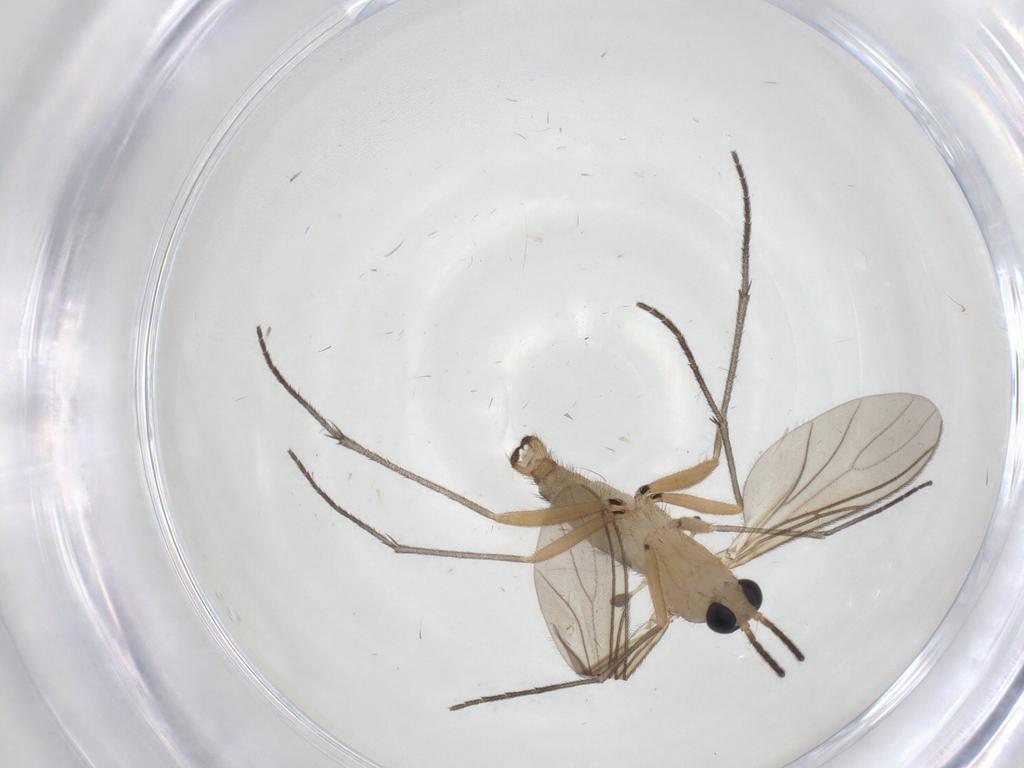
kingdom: Animalia
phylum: Arthropoda
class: Insecta
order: Diptera
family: Sciaridae
